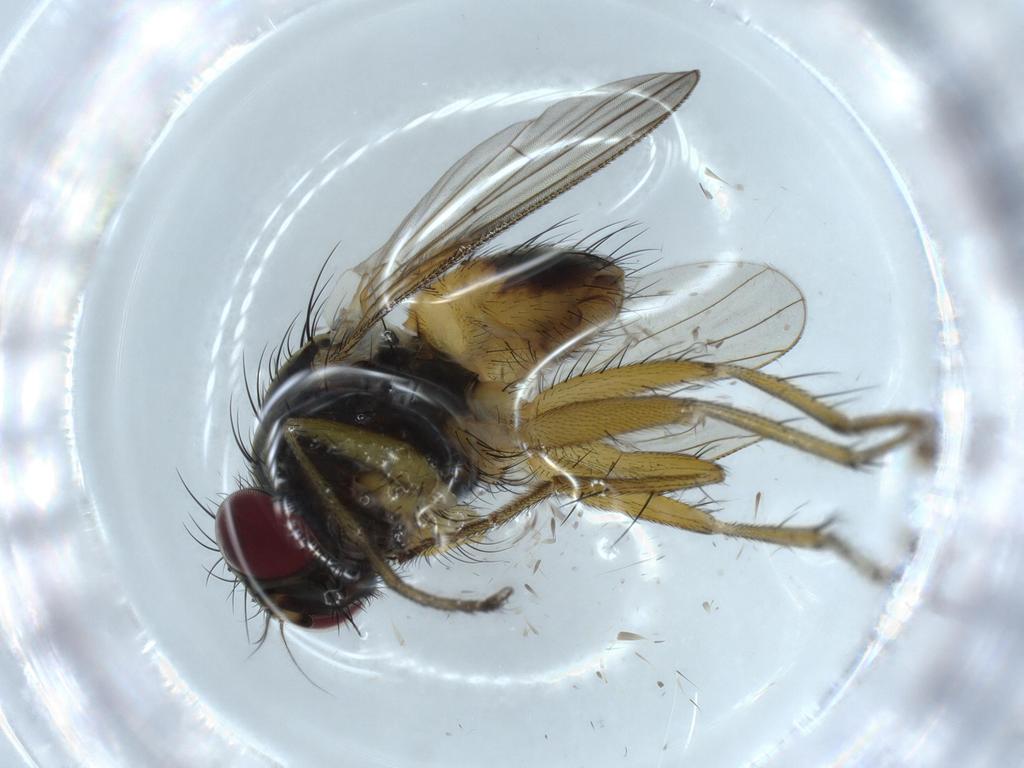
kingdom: Animalia
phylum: Arthropoda
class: Insecta
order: Diptera
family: Muscidae
